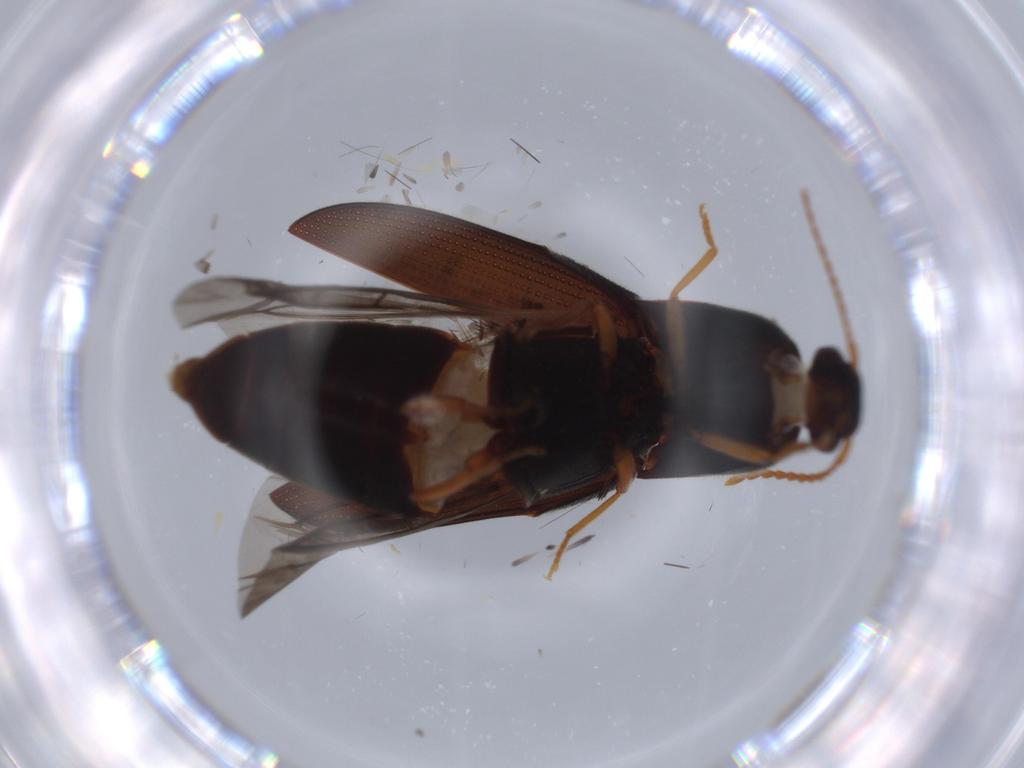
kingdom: Animalia
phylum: Arthropoda
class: Insecta
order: Coleoptera
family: Elateridae
